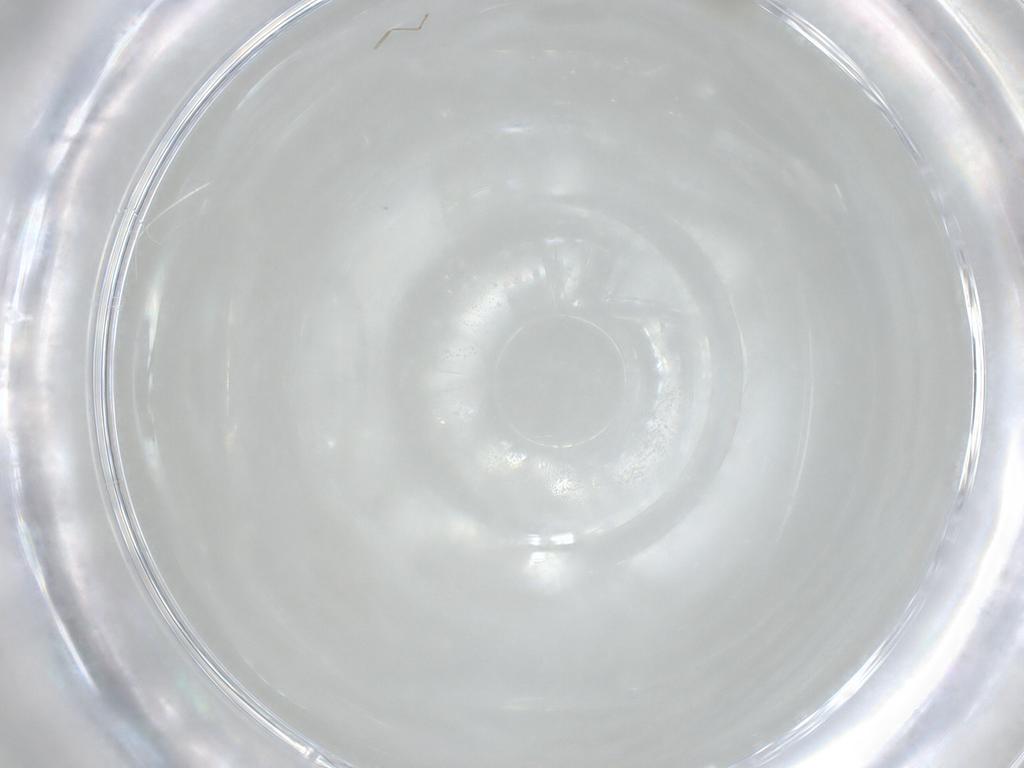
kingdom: Animalia
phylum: Arthropoda
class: Insecta
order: Diptera
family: Cecidomyiidae
